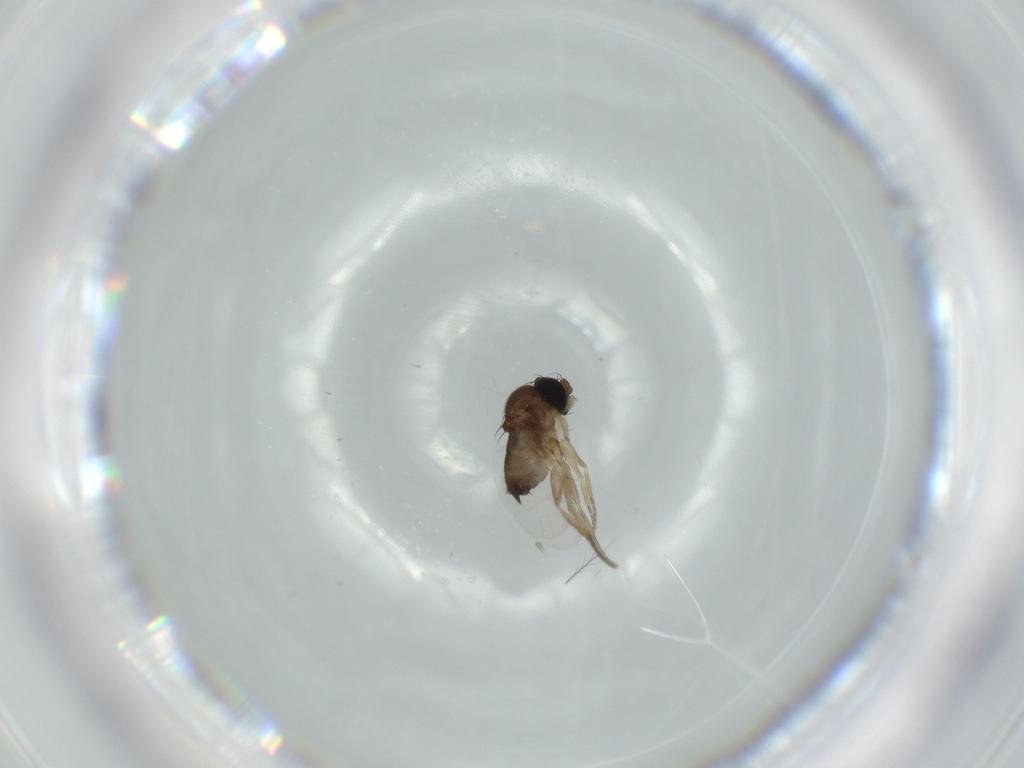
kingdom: Animalia
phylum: Arthropoda
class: Insecta
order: Diptera
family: Phoridae
